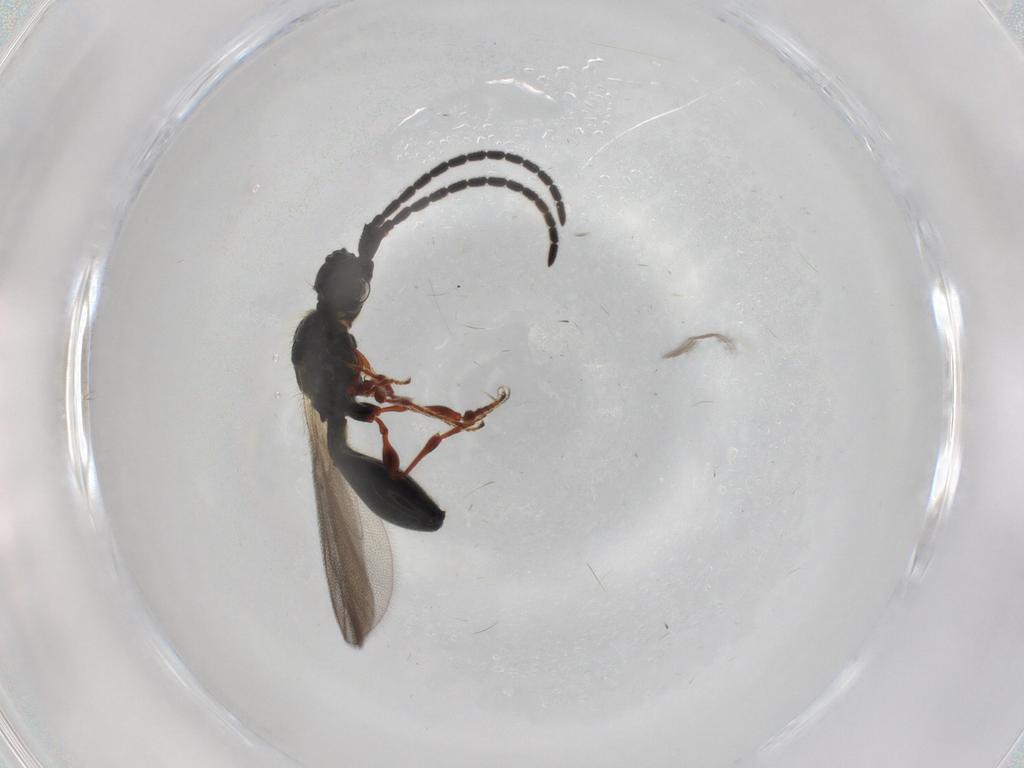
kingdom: Animalia
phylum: Arthropoda
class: Insecta
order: Hymenoptera
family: Diapriidae
